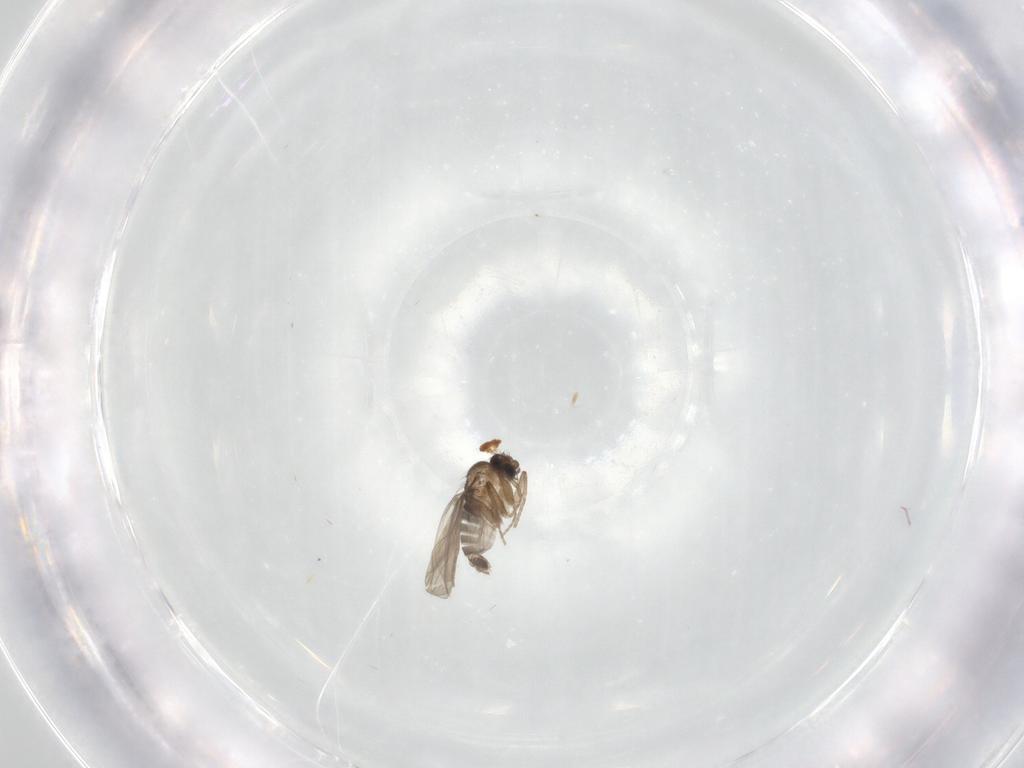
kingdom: Animalia
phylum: Arthropoda
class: Insecta
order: Diptera
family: Phoridae
